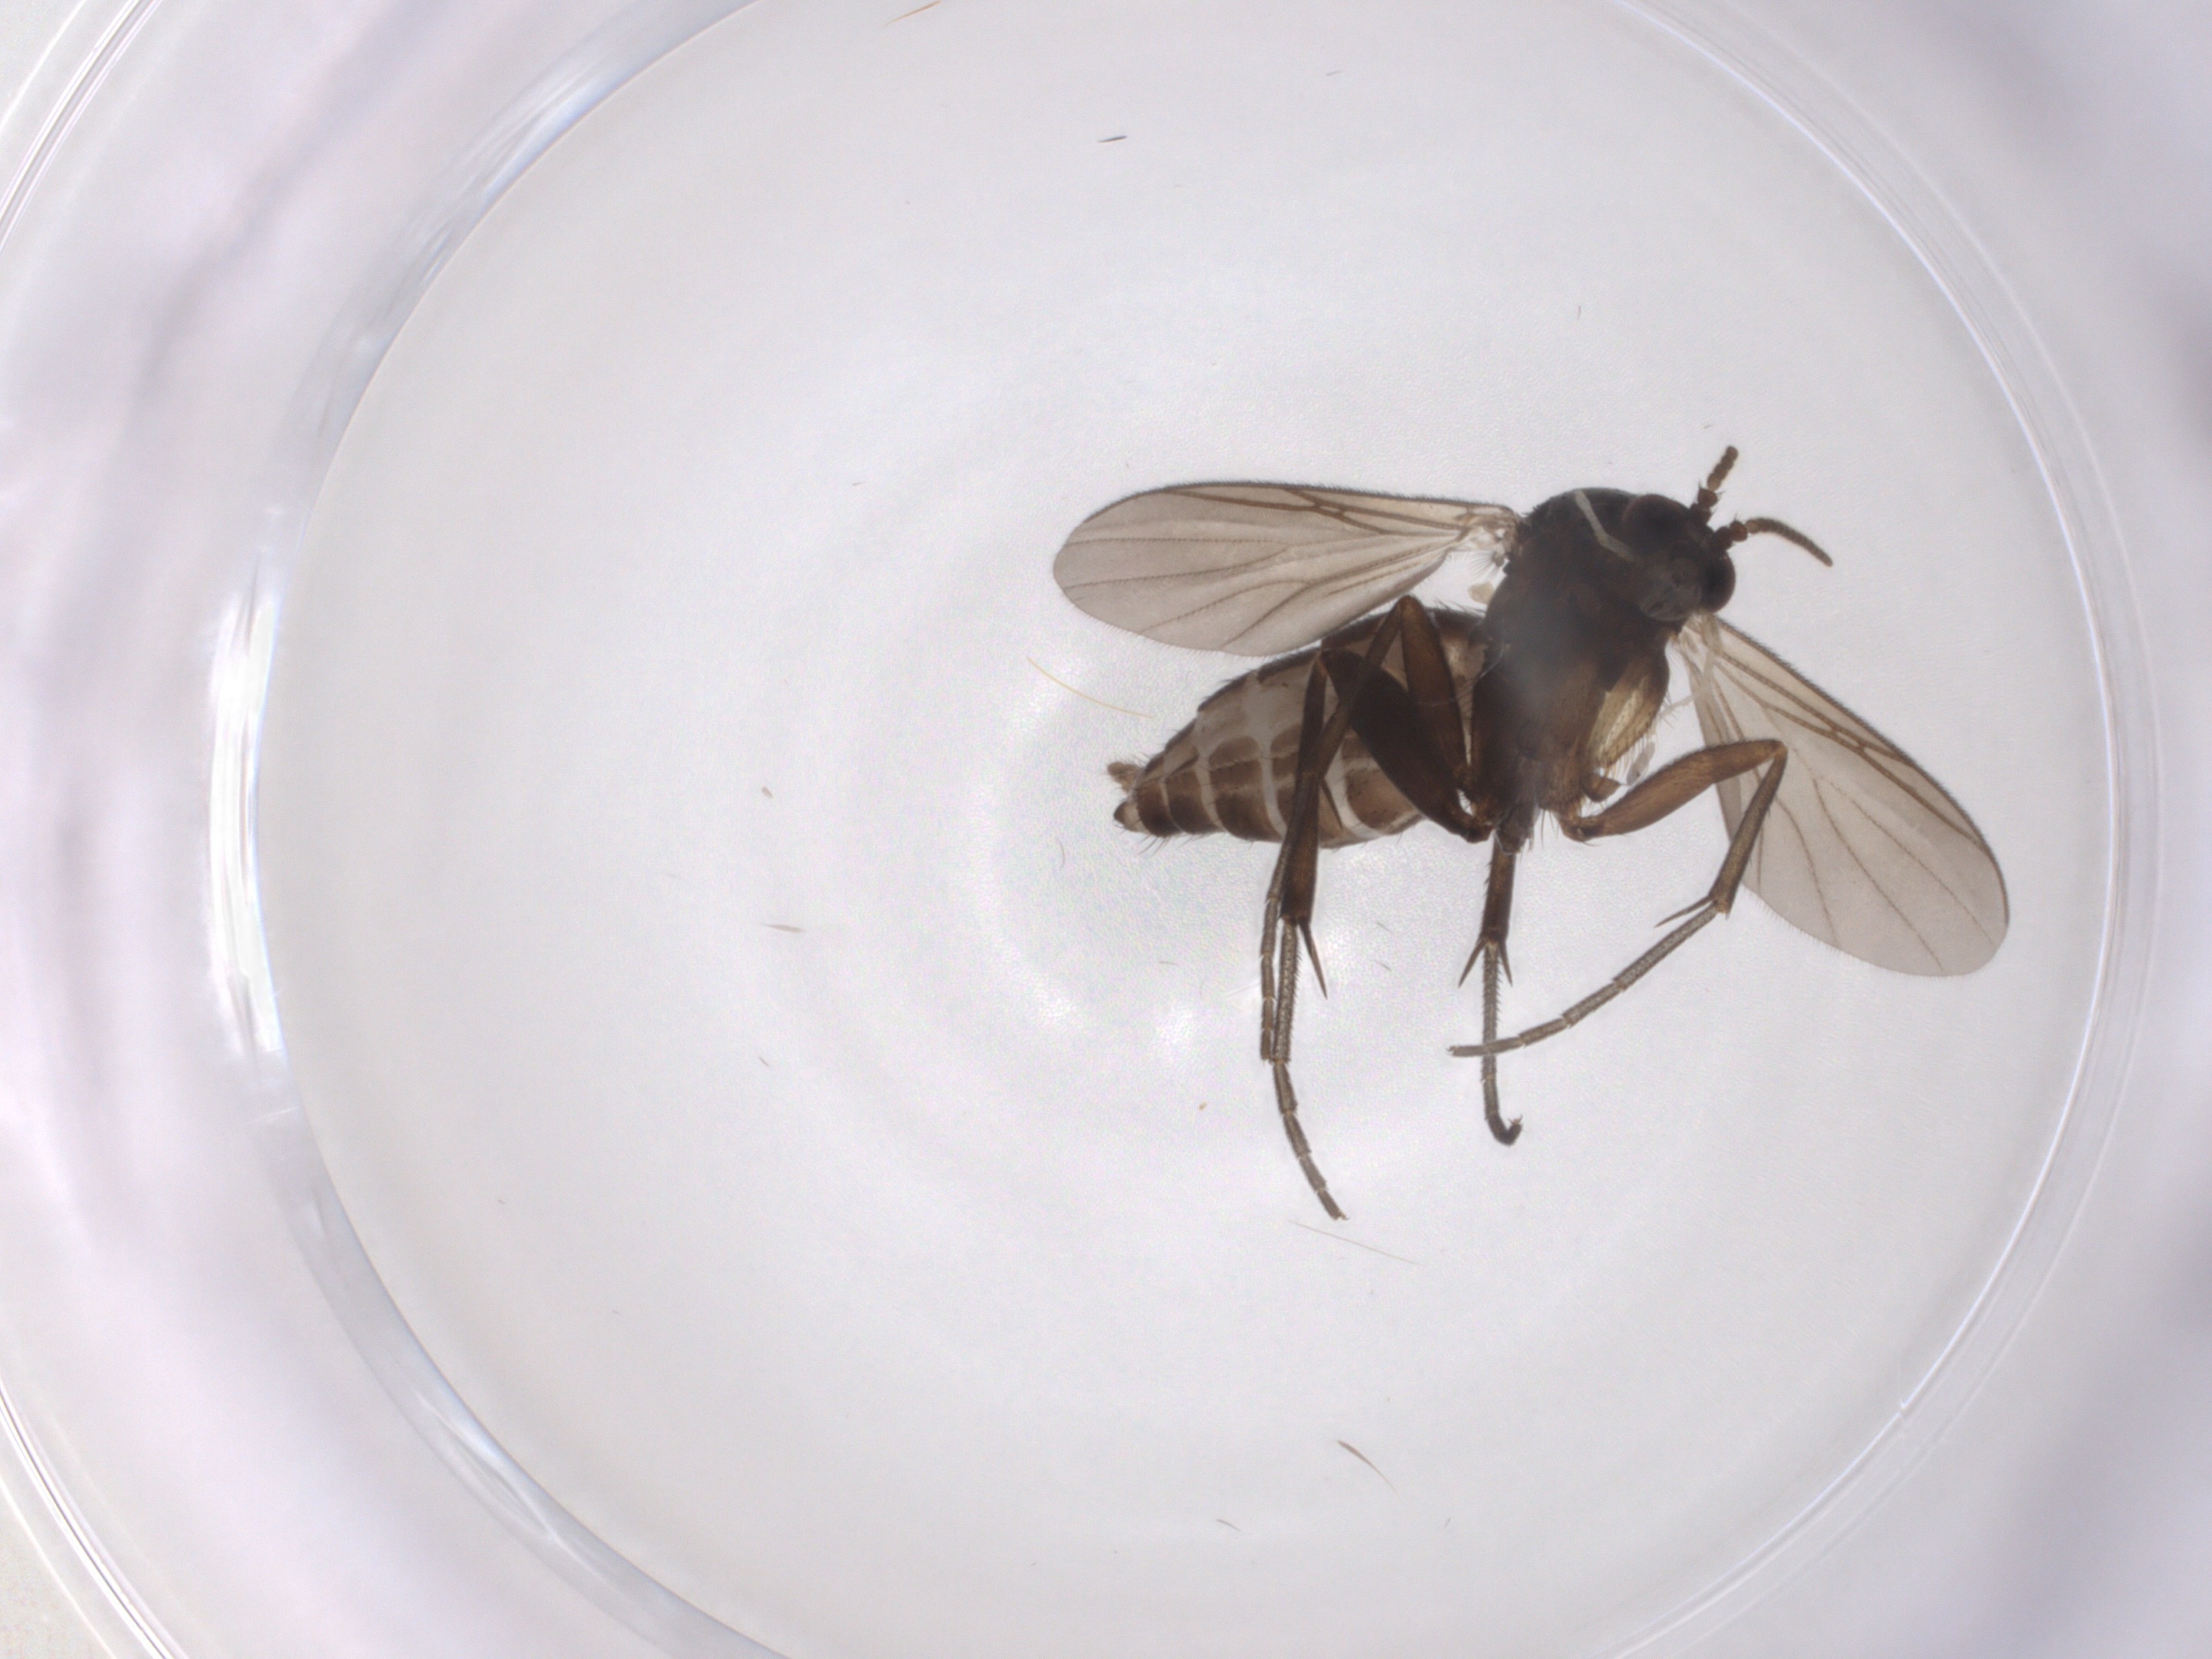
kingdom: Animalia
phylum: Arthropoda
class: Insecta
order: Diptera
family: Mycetophilidae
